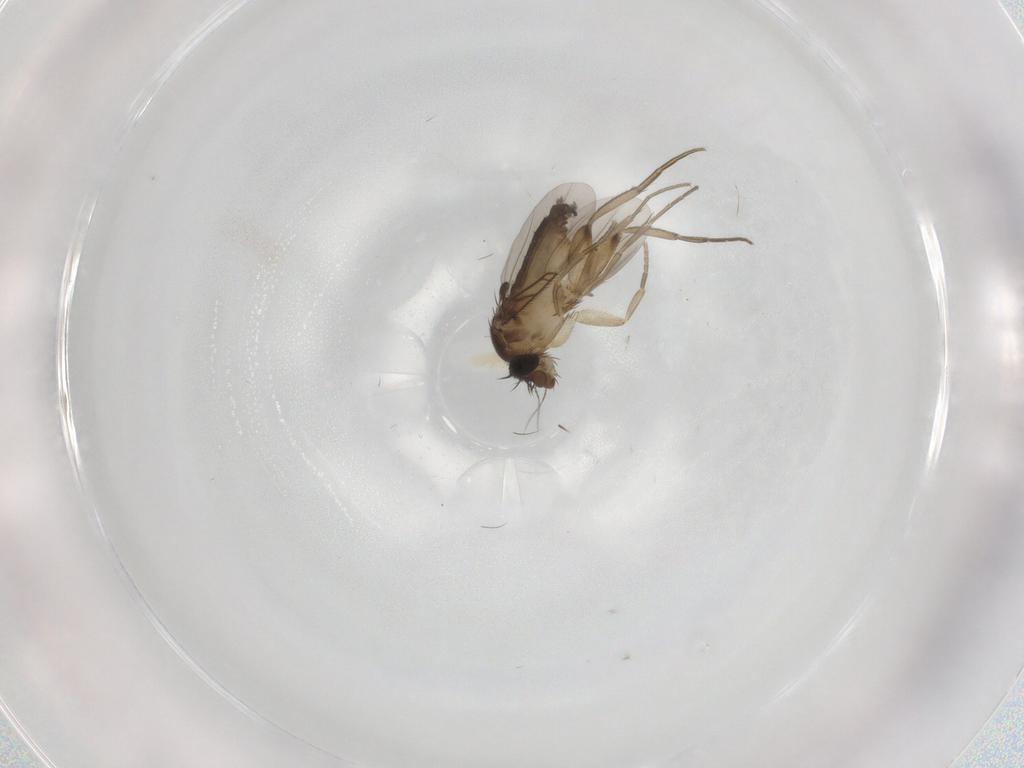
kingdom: Animalia
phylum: Arthropoda
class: Insecta
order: Diptera
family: Phoridae
